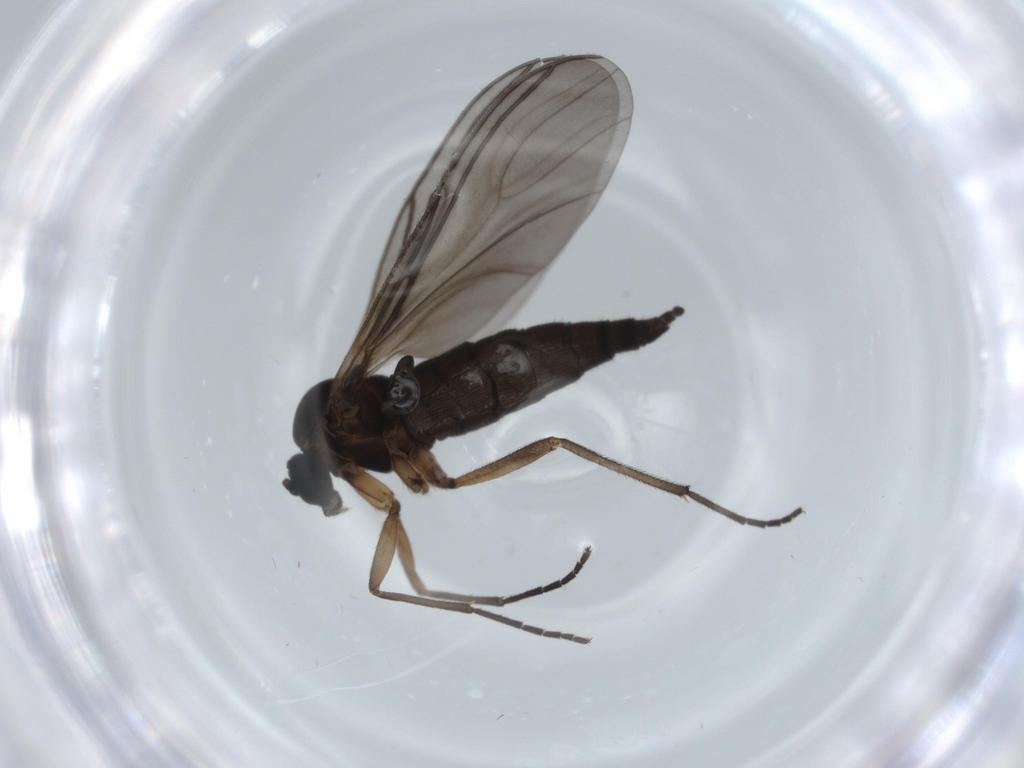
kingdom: Animalia
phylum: Arthropoda
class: Insecta
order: Diptera
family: Sciaridae
